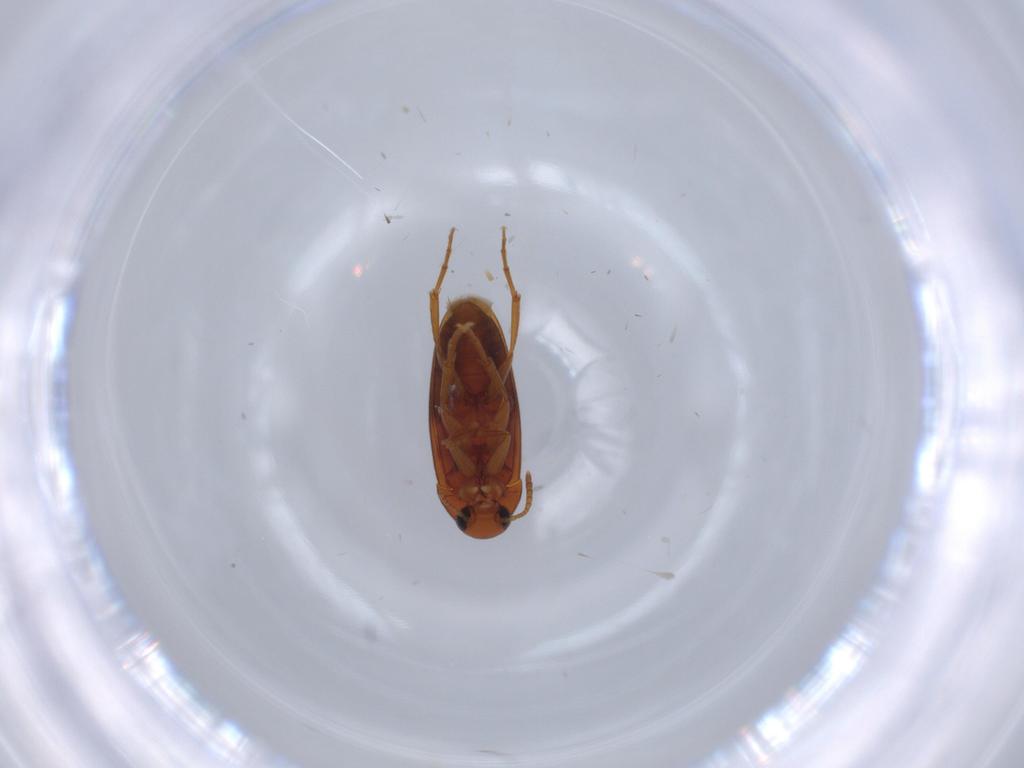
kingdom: Animalia
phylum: Arthropoda
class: Insecta
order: Coleoptera
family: Scraptiidae
